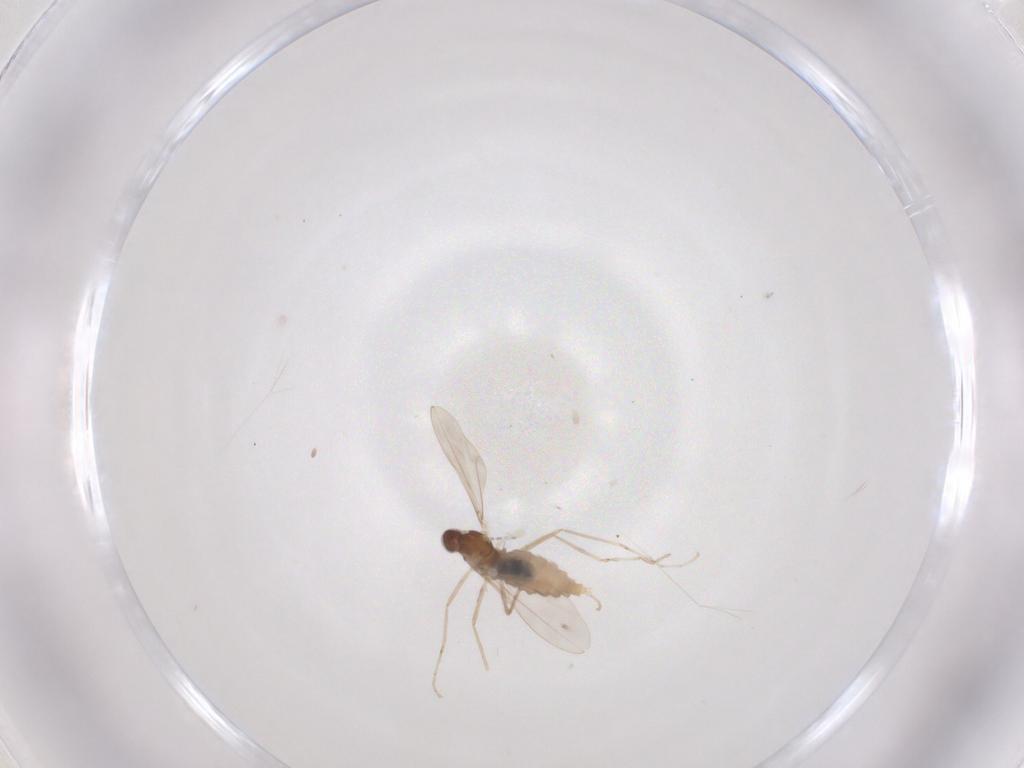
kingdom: Animalia
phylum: Arthropoda
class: Insecta
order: Diptera
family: Cecidomyiidae
